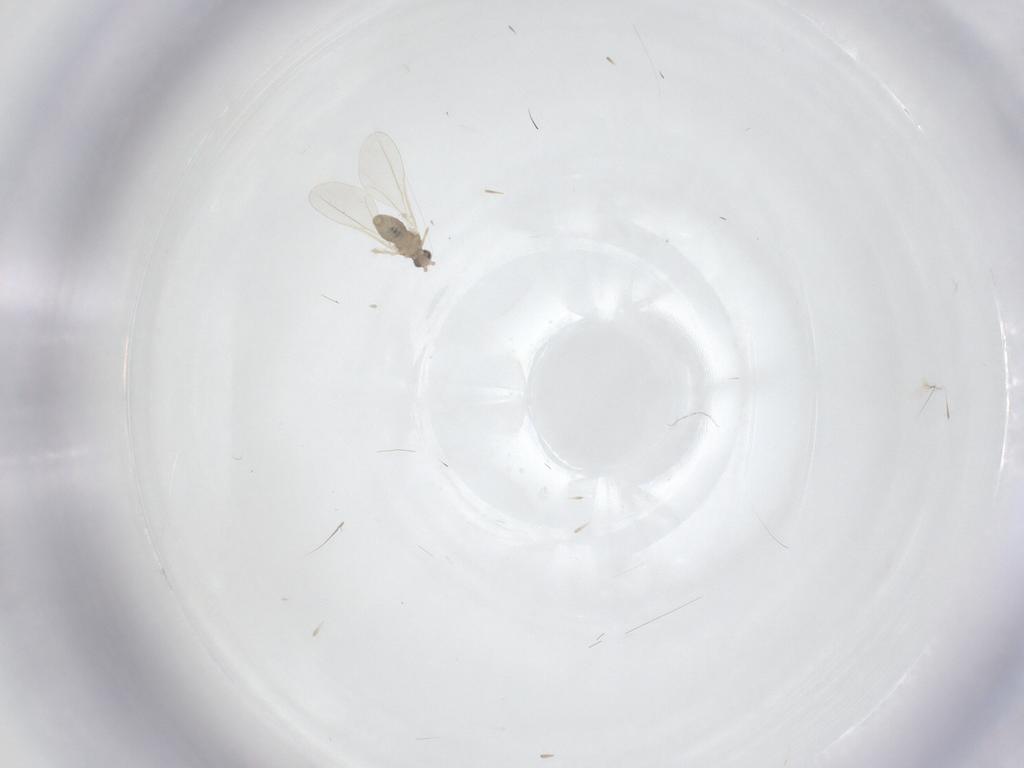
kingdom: Animalia
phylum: Arthropoda
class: Insecta
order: Diptera
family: Cecidomyiidae
